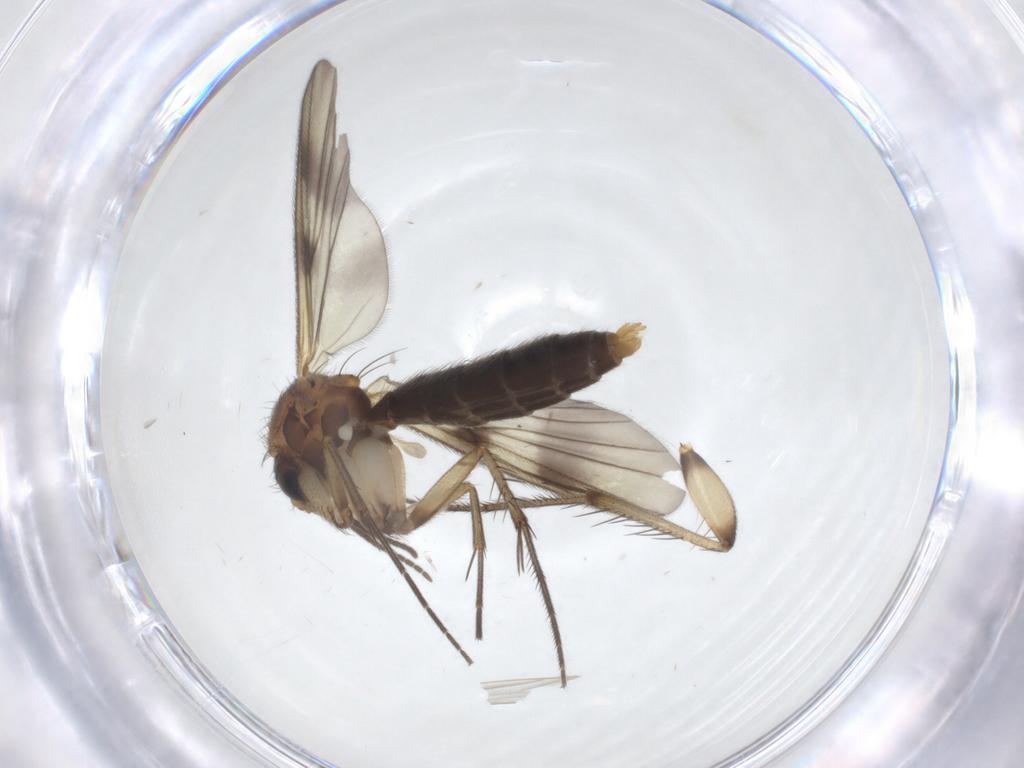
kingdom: Animalia
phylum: Arthropoda
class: Insecta
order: Diptera
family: Mycetophilidae
